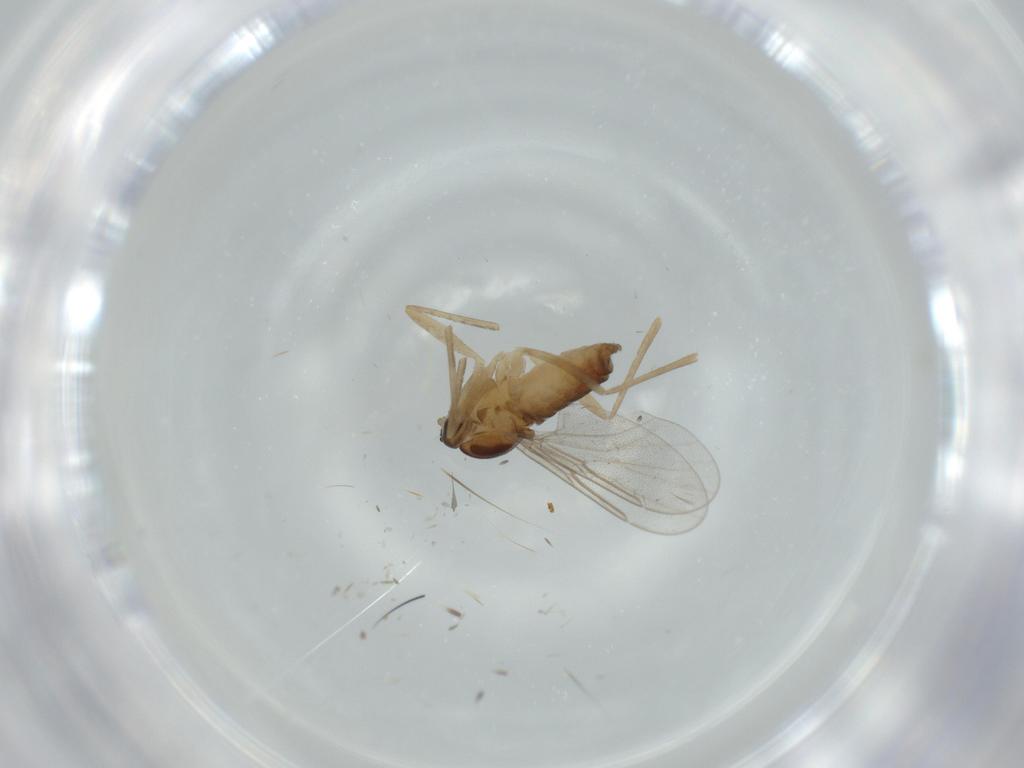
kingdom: Animalia
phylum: Arthropoda
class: Insecta
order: Diptera
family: Cecidomyiidae
